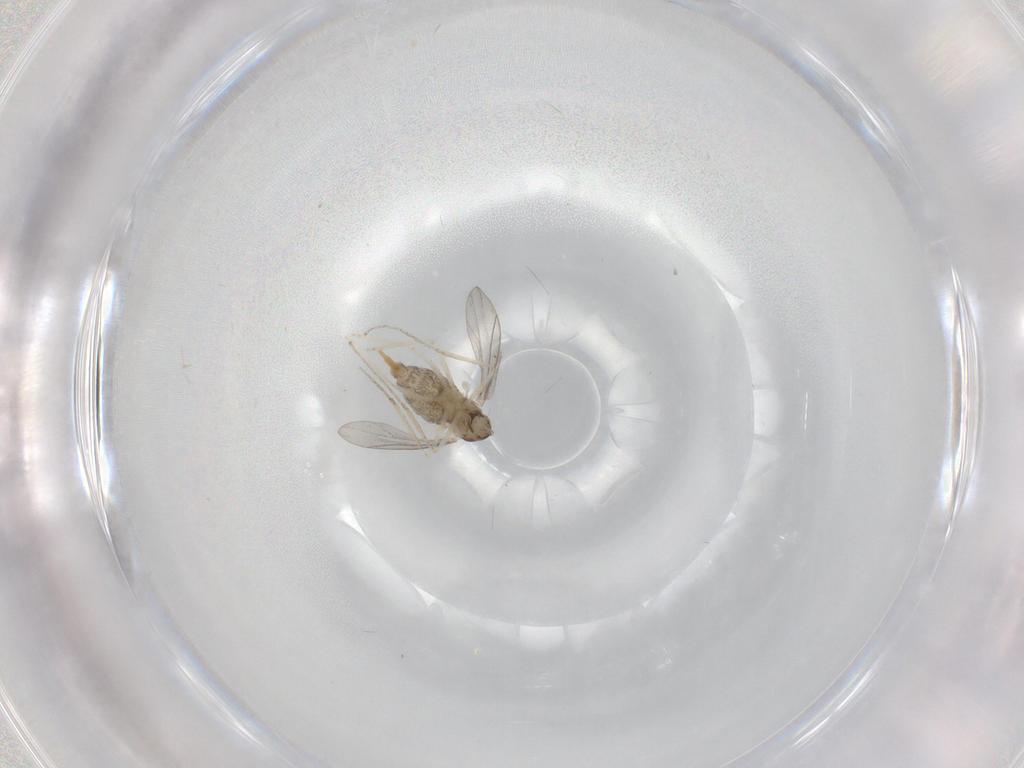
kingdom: Animalia
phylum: Arthropoda
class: Insecta
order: Diptera
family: Cecidomyiidae
